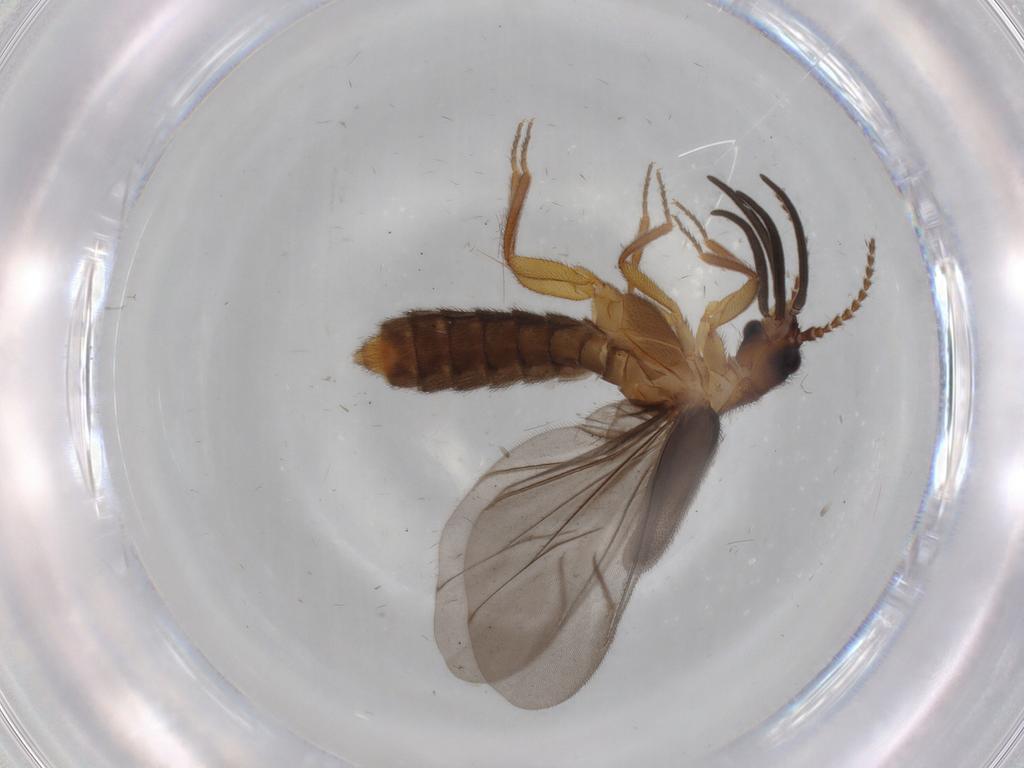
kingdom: Animalia
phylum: Arthropoda
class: Insecta
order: Coleoptera
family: Omethidae
